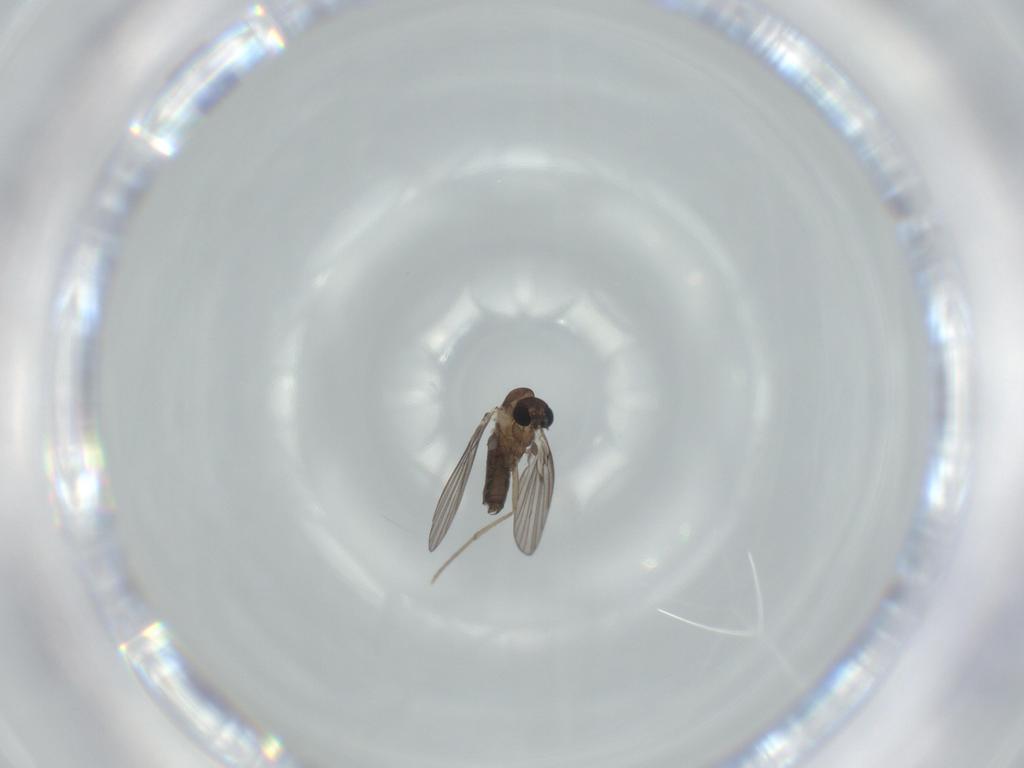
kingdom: Animalia
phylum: Arthropoda
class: Insecta
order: Diptera
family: Psychodidae
